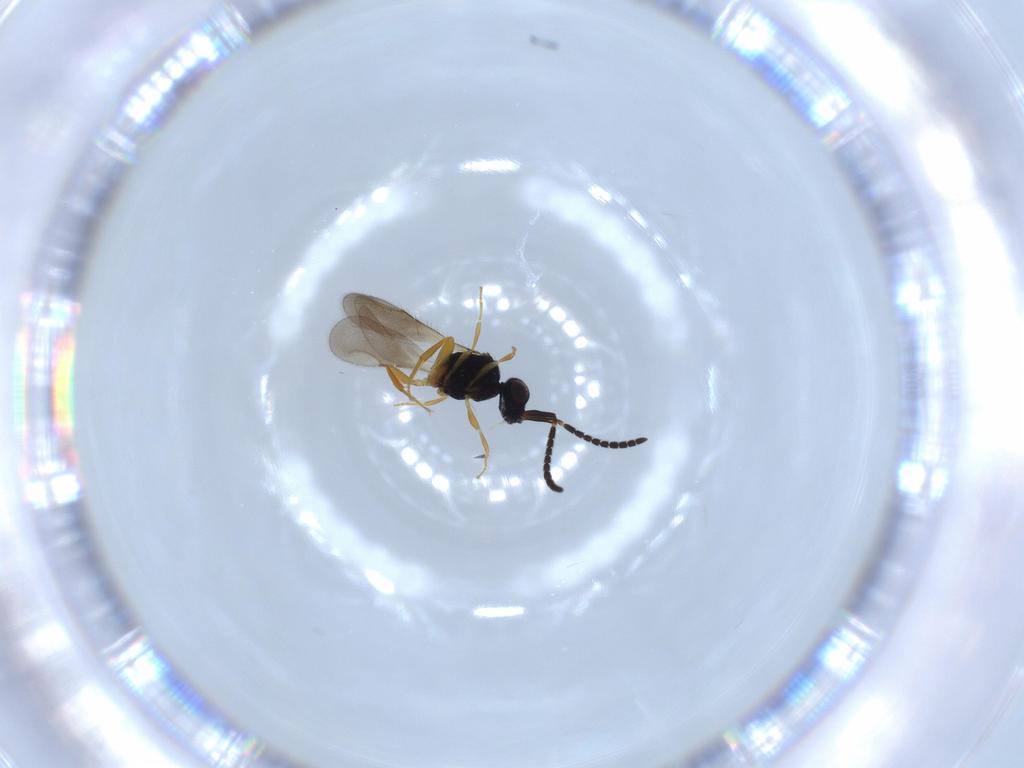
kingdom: Animalia
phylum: Arthropoda
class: Insecta
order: Hymenoptera
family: Ceraphronidae
